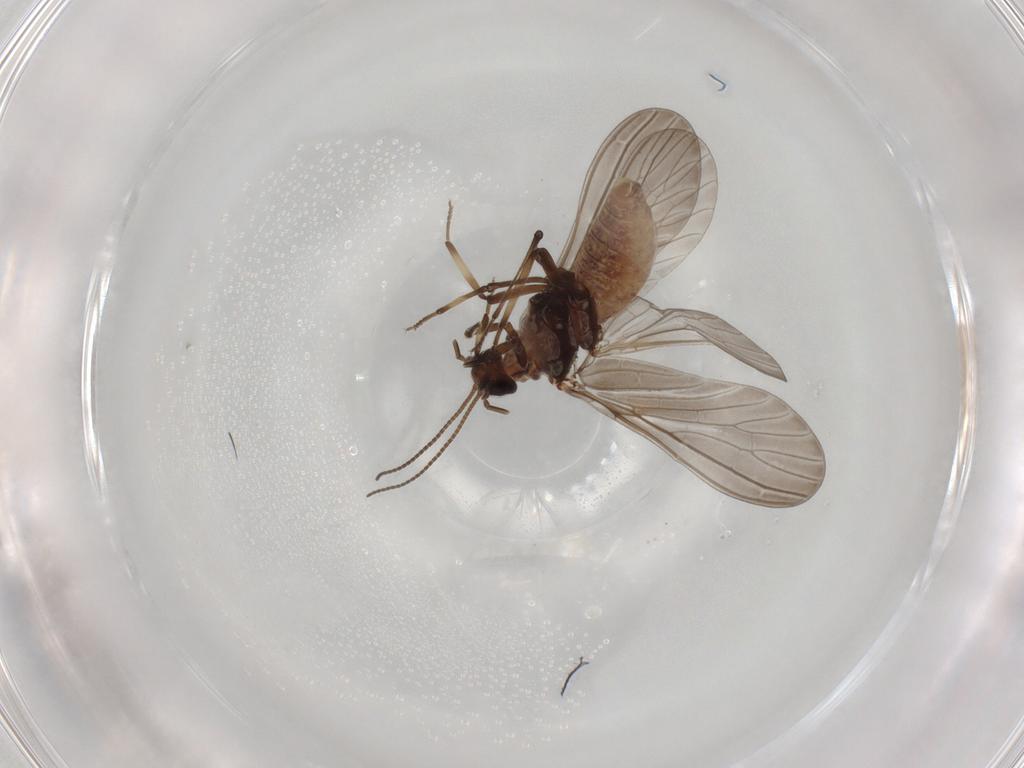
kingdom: Animalia
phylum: Arthropoda
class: Insecta
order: Neuroptera
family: Coniopterygidae
